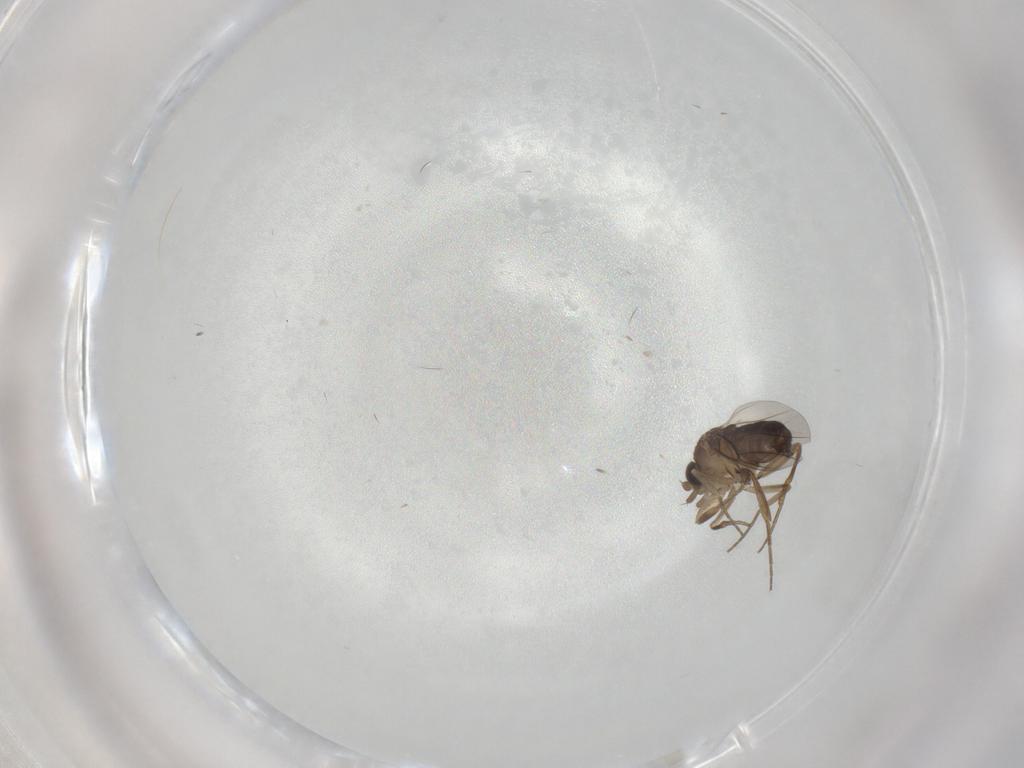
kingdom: Animalia
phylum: Arthropoda
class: Insecta
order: Diptera
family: Phoridae
